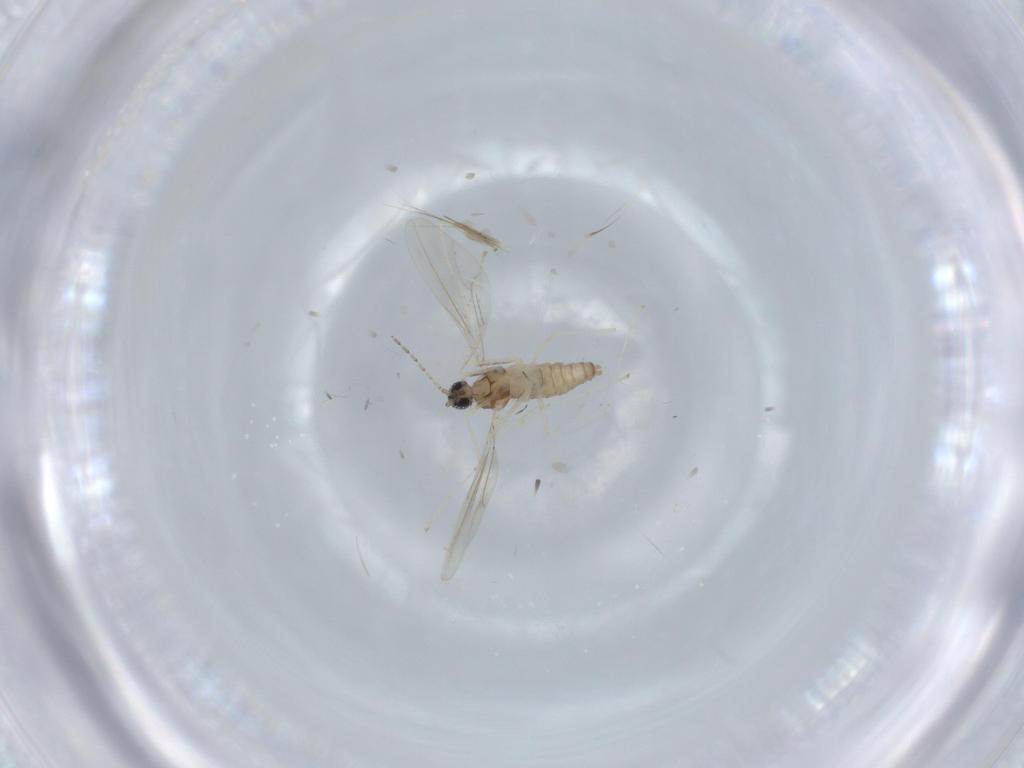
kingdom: Animalia
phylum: Arthropoda
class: Insecta
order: Diptera
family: Cecidomyiidae
